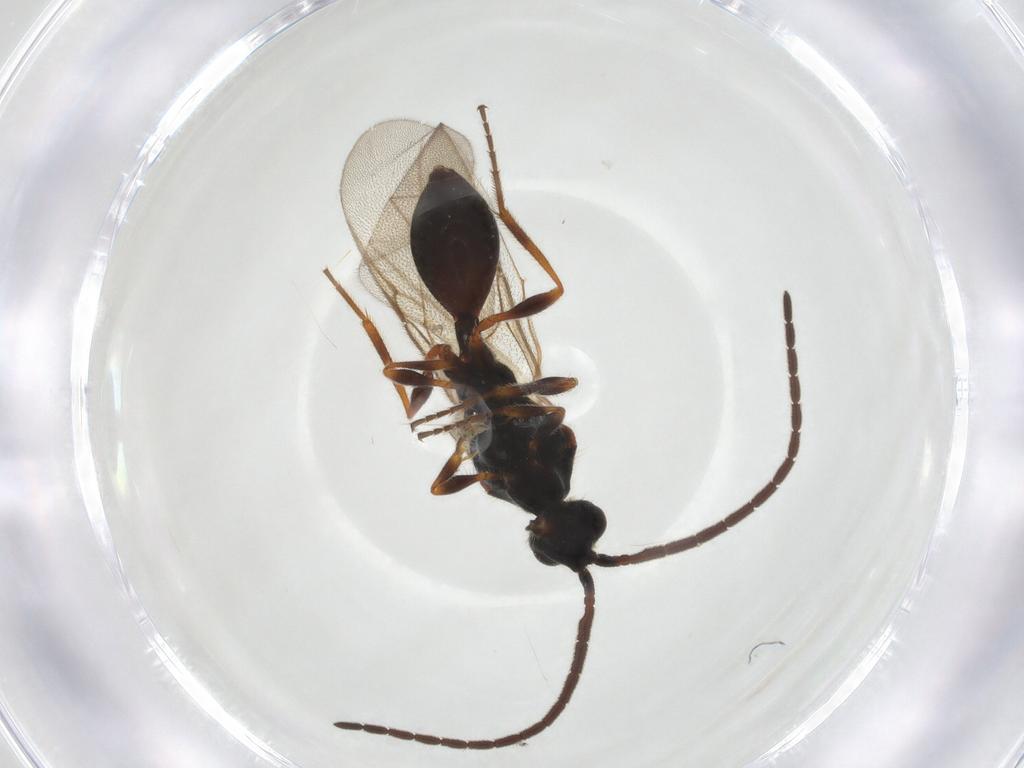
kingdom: Animalia
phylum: Arthropoda
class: Insecta
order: Hymenoptera
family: Diapriidae
